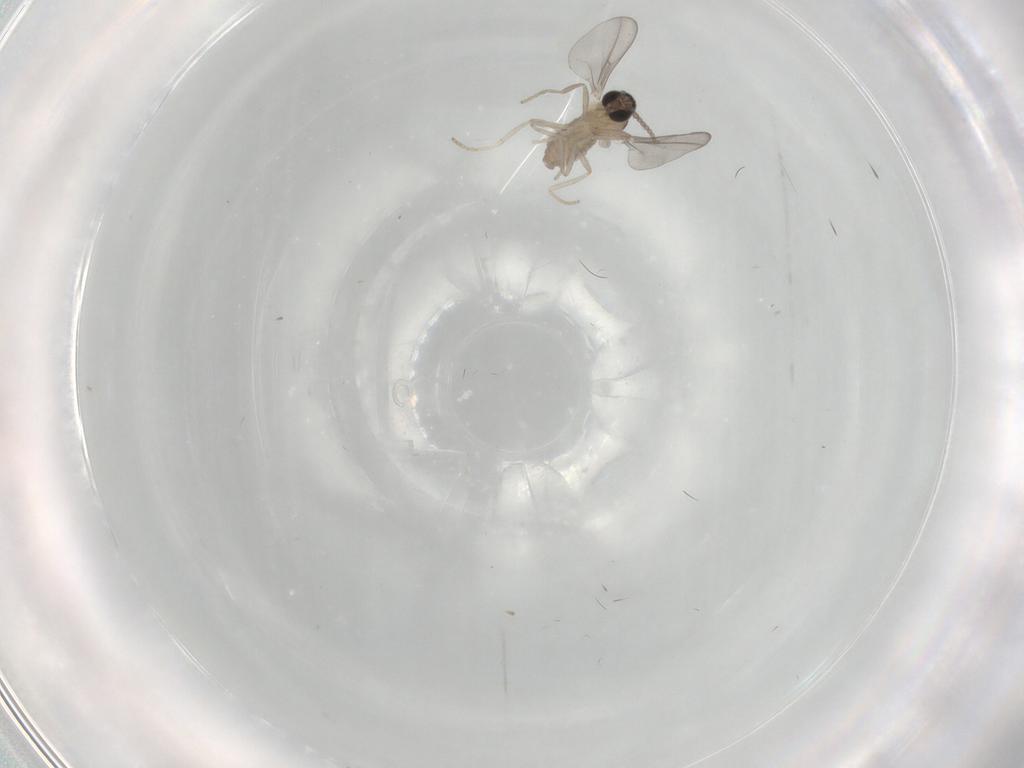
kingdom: Animalia
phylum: Arthropoda
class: Insecta
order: Diptera
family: Cecidomyiidae
